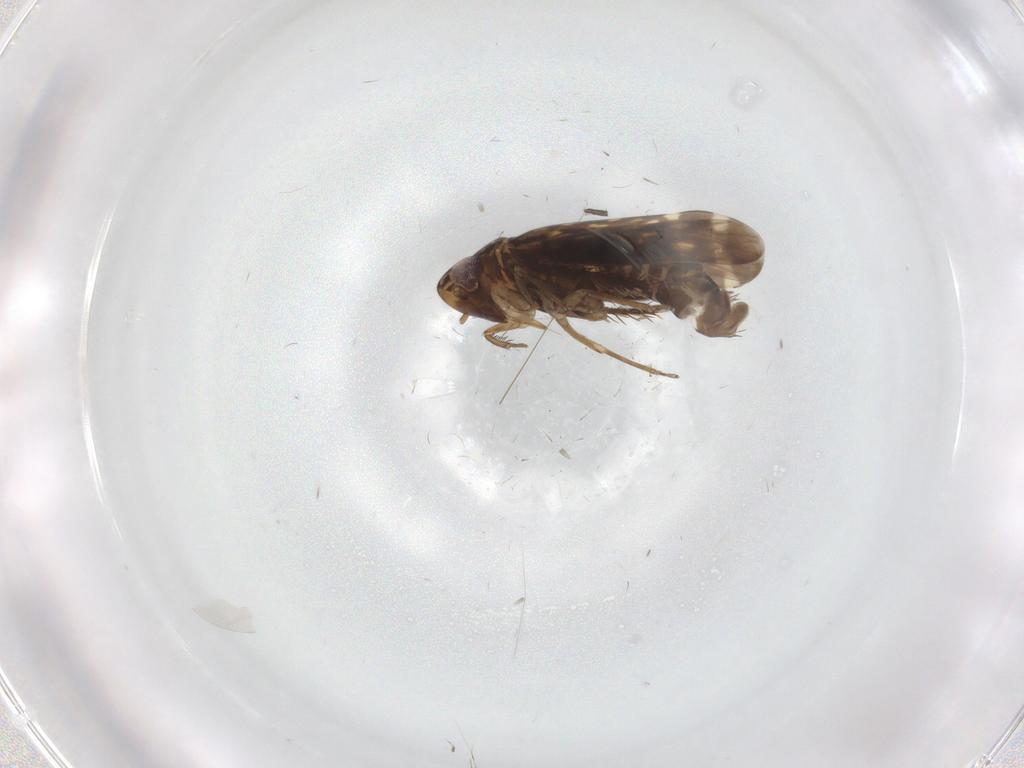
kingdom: Animalia
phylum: Arthropoda
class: Insecta
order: Hemiptera
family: Cicadellidae
